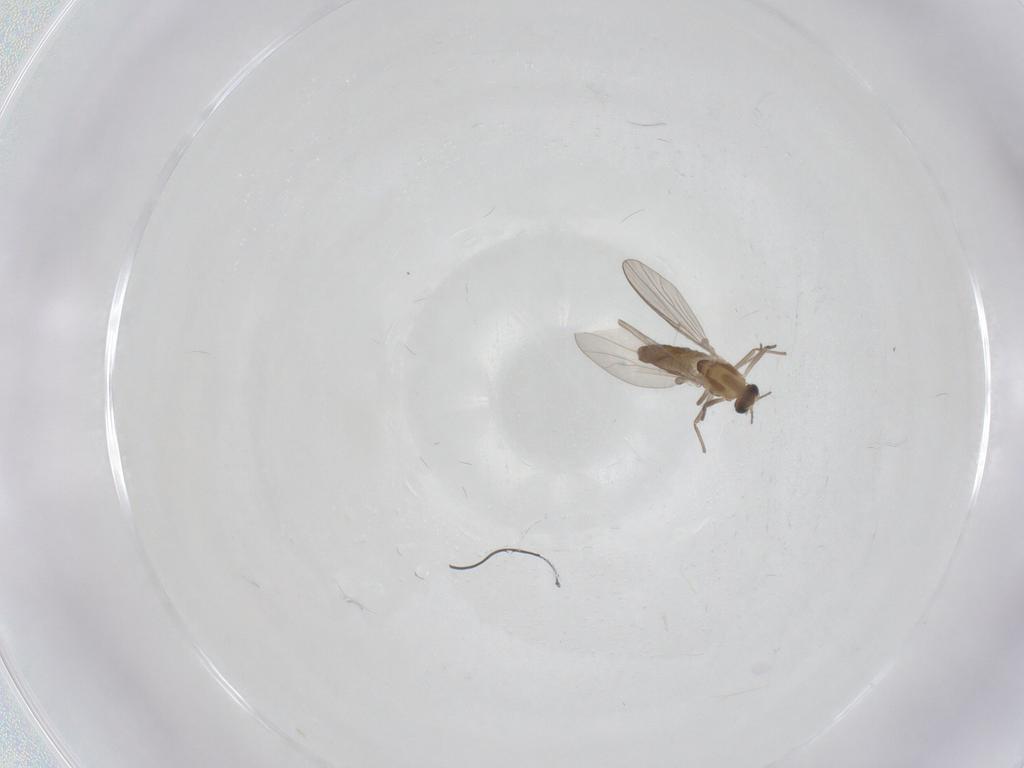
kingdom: Animalia
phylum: Arthropoda
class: Insecta
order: Diptera
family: Chironomidae
